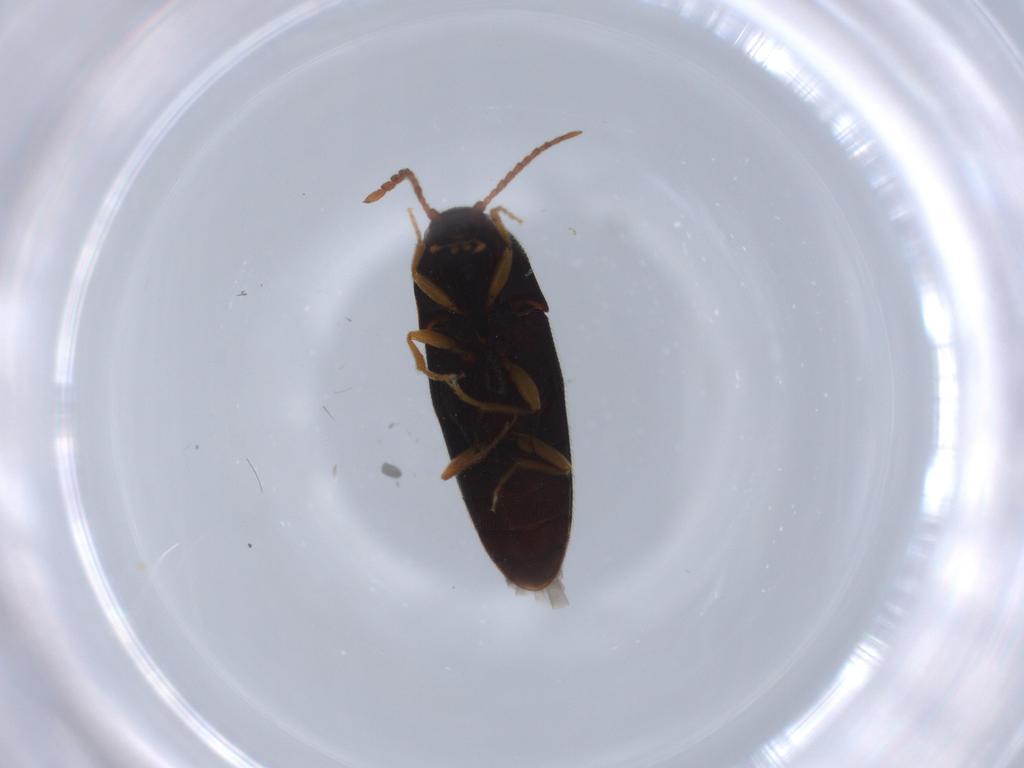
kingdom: Animalia
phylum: Arthropoda
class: Insecta
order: Coleoptera
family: Elateridae
